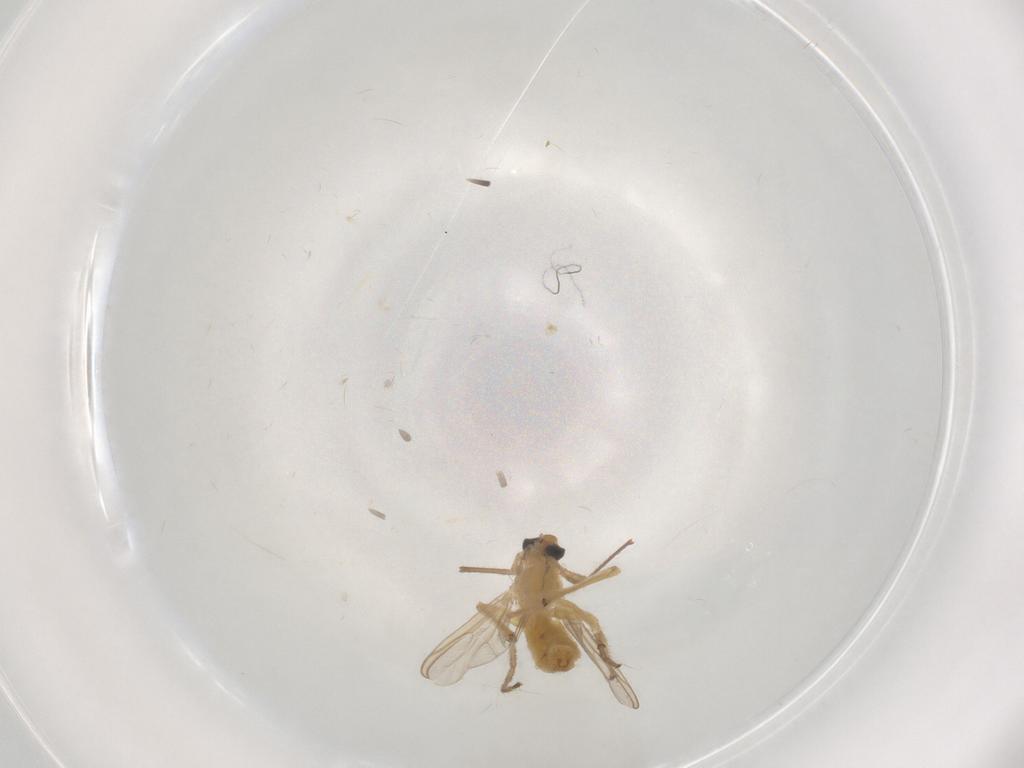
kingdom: Animalia
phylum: Arthropoda
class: Insecta
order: Diptera
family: Chironomidae
